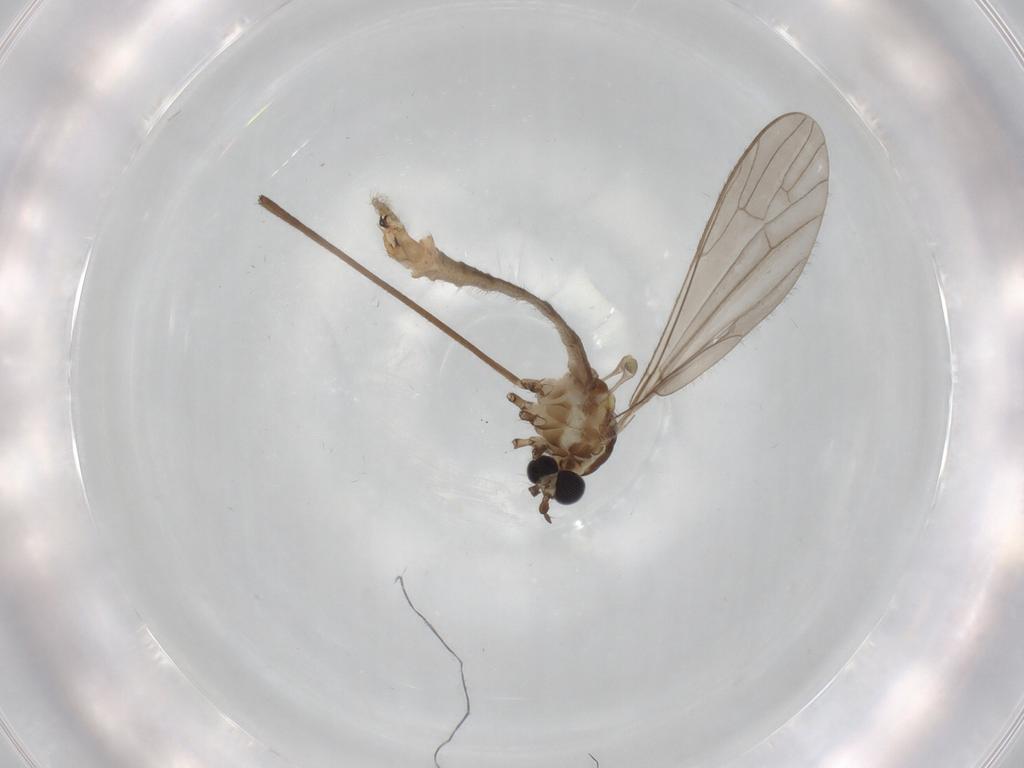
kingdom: Animalia
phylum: Arthropoda
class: Insecta
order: Diptera
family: Chironomidae
